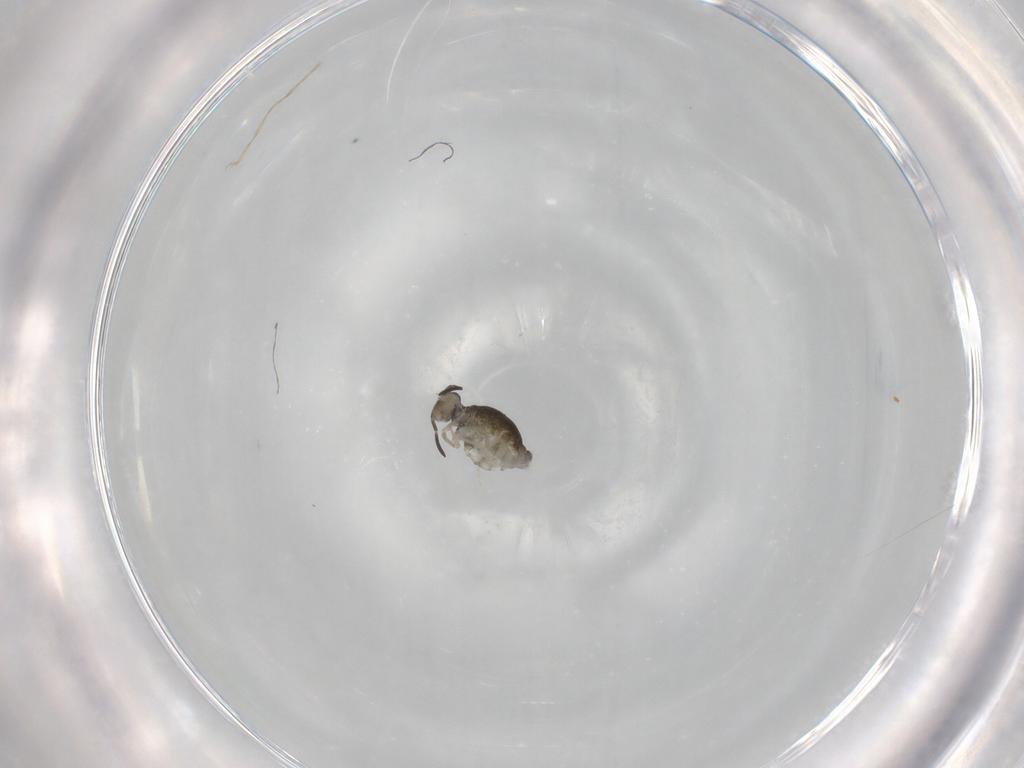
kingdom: Animalia
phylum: Arthropoda
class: Collembola
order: Symphypleona
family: Katiannidae
